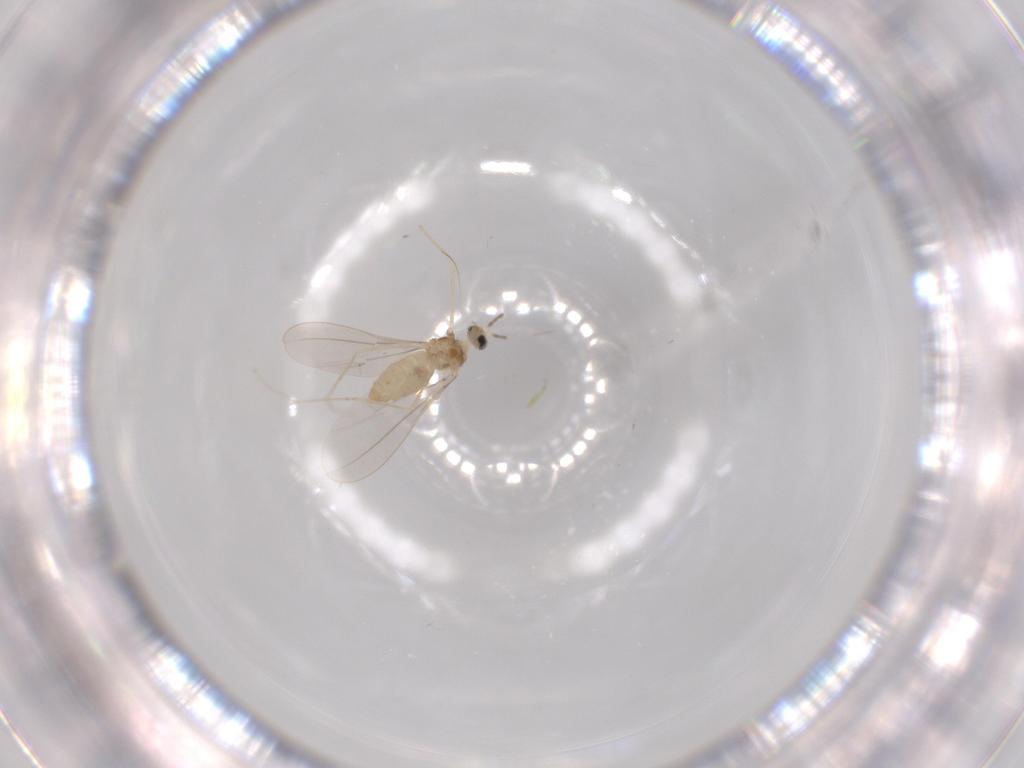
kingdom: Animalia
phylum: Arthropoda
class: Insecta
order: Diptera
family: Cecidomyiidae
